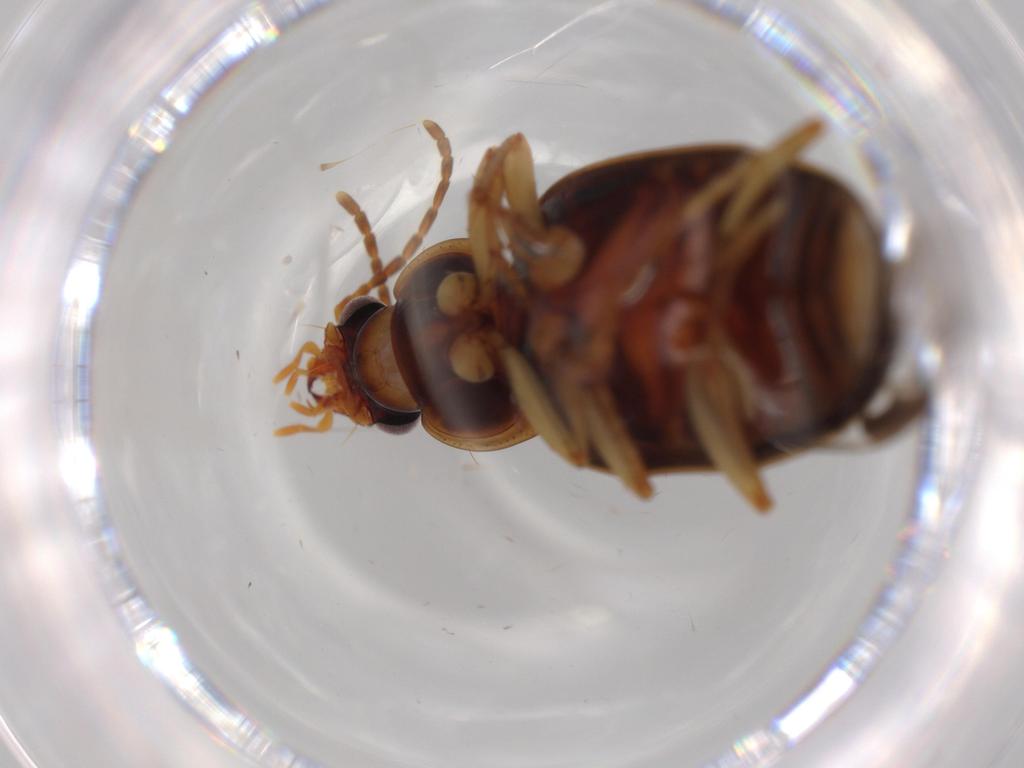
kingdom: Animalia
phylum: Arthropoda
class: Insecta
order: Coleoptera
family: Carabidae
